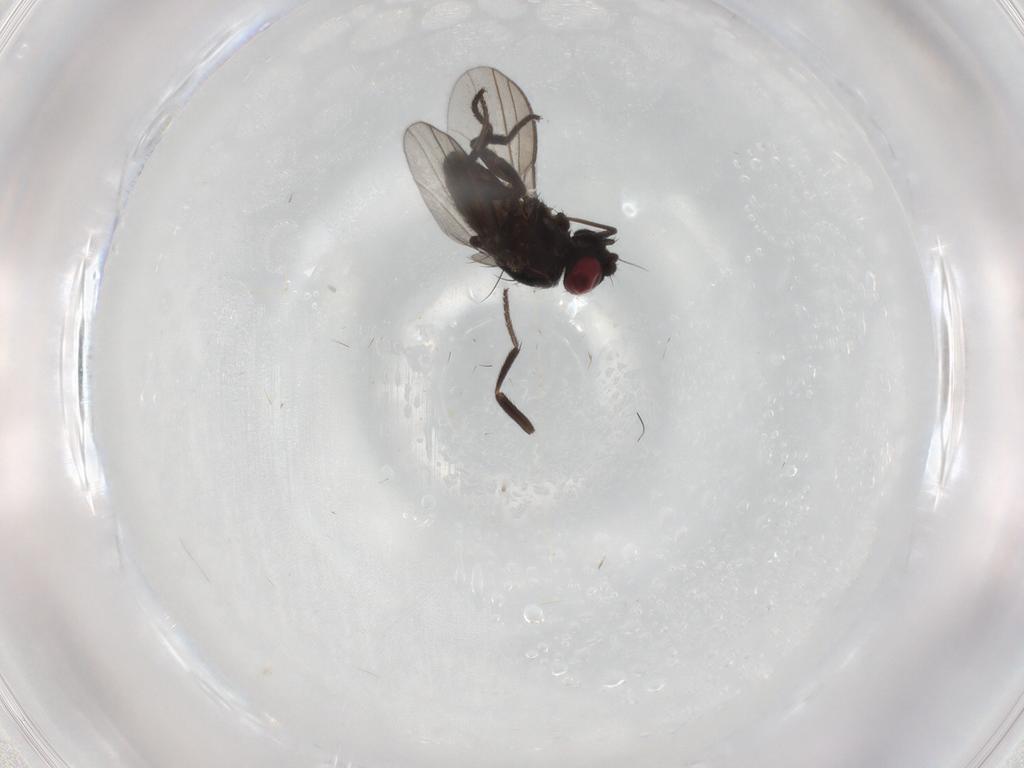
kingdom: Animalia
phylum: Arthropoda
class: Insecta
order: Diptera
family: Milichiidae
